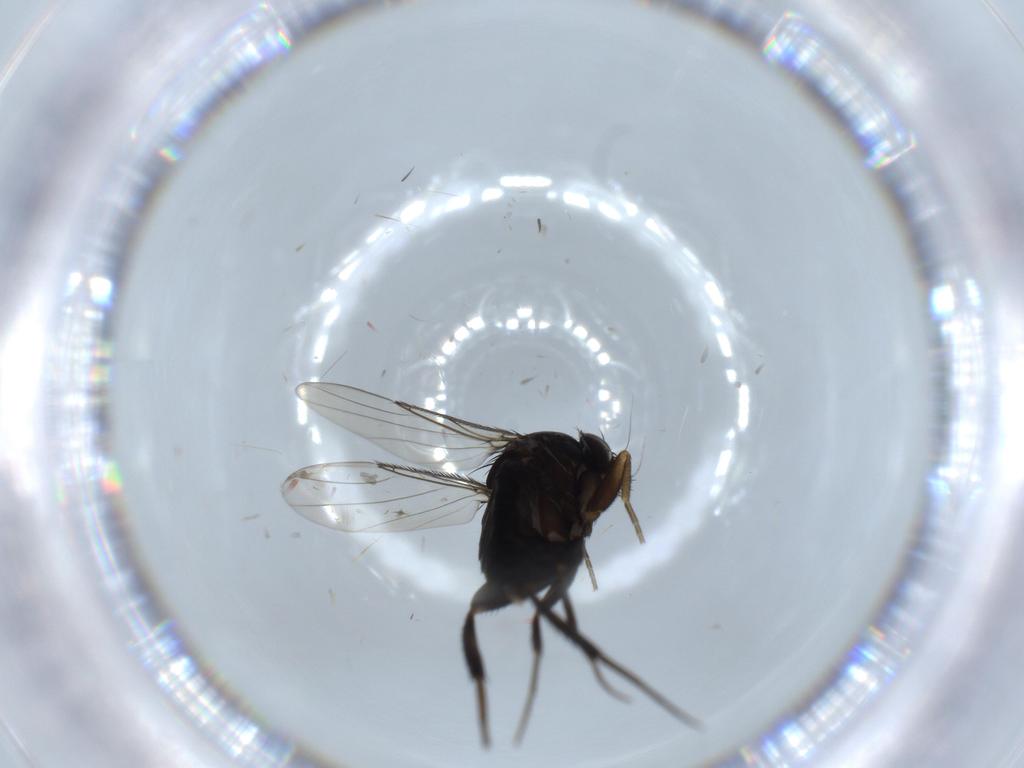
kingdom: Animalia
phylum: Arthropoda
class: Insecta
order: Diptera
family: Phoridae
